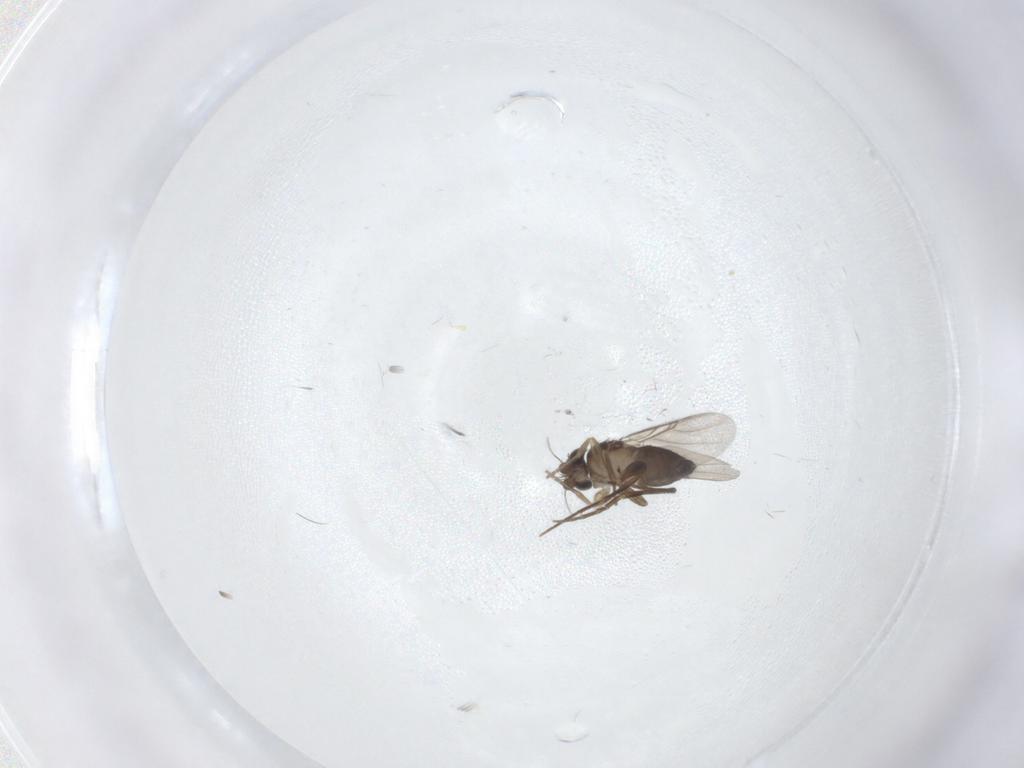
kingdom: Animalia
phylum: Arthropoda
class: Insecta
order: Diptera
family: Phoridae
